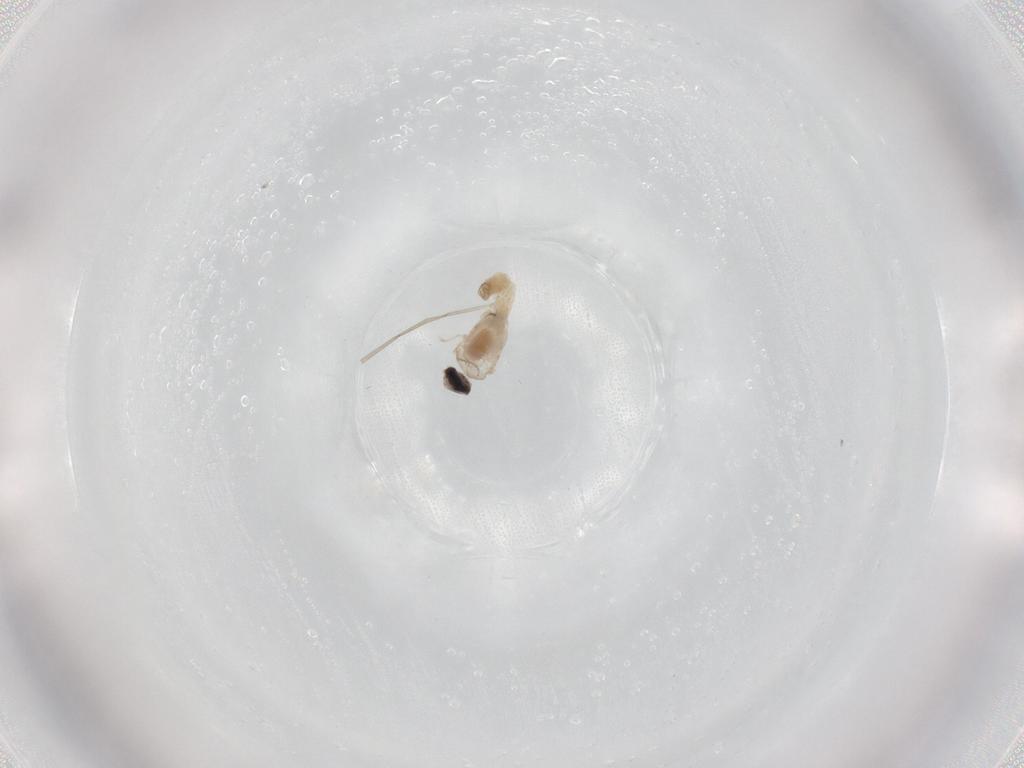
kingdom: Animalia
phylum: Arthropoda
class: Insecta
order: Diptera
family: Cecidomyiidae
